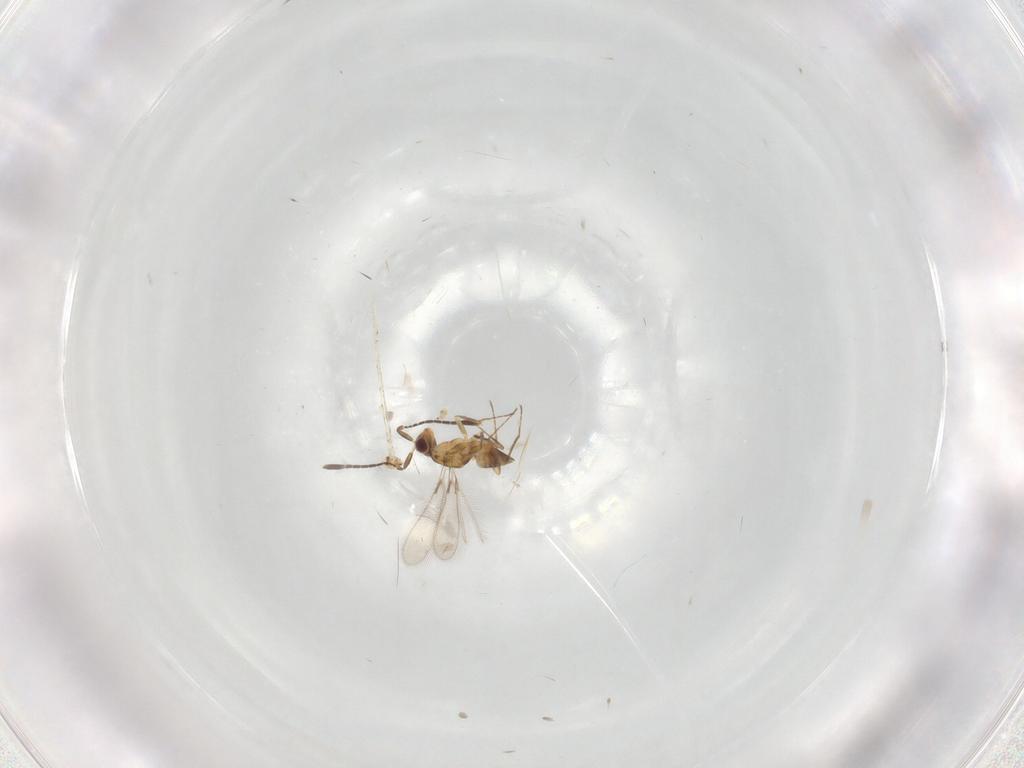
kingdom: Animalia
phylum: Arthropoda
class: Insecta
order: Hymenoptera
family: Mymaridae
